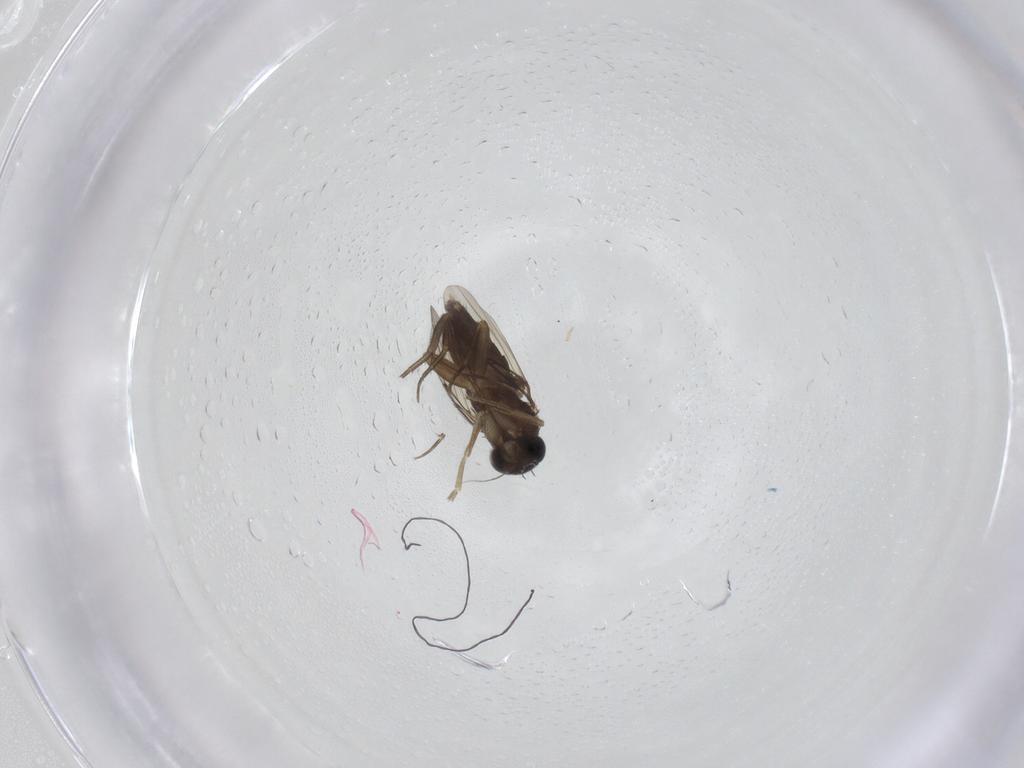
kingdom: Animalia
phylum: Arthropoda
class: Insecta
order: Diptera
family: Phoridae
